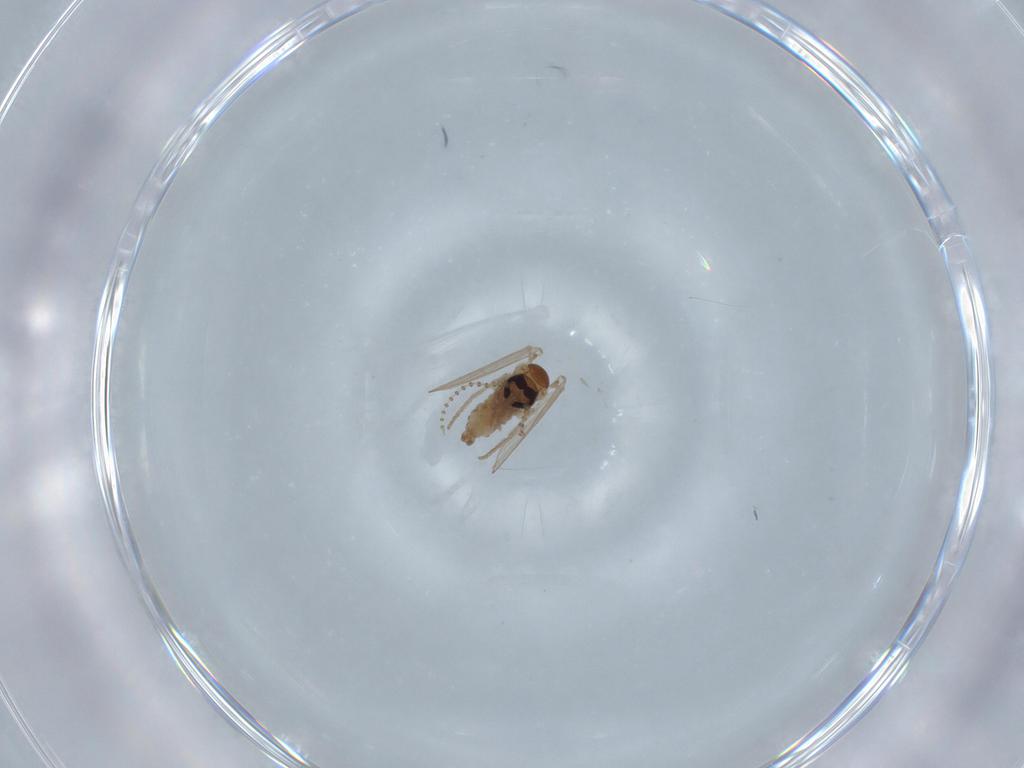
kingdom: Animalia
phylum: Arthropoda
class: Insecta
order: Diptera
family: Psychodidae
